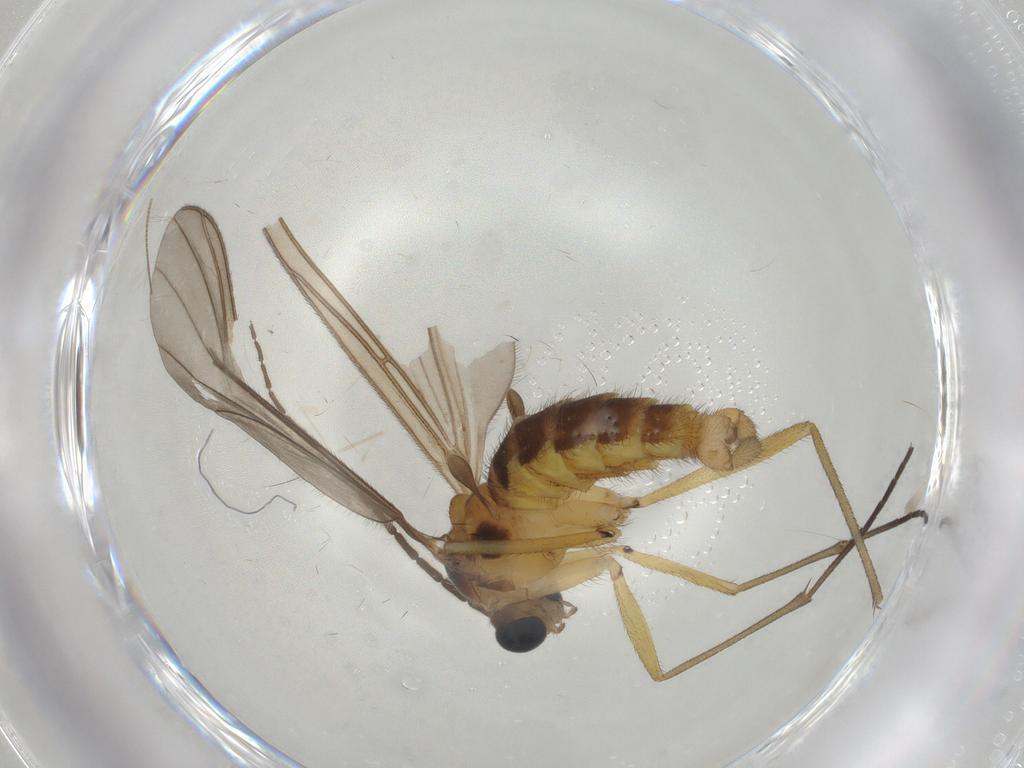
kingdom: Animalia
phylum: Arthropoda
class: Insecta
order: Diptera
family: Sciaridae
